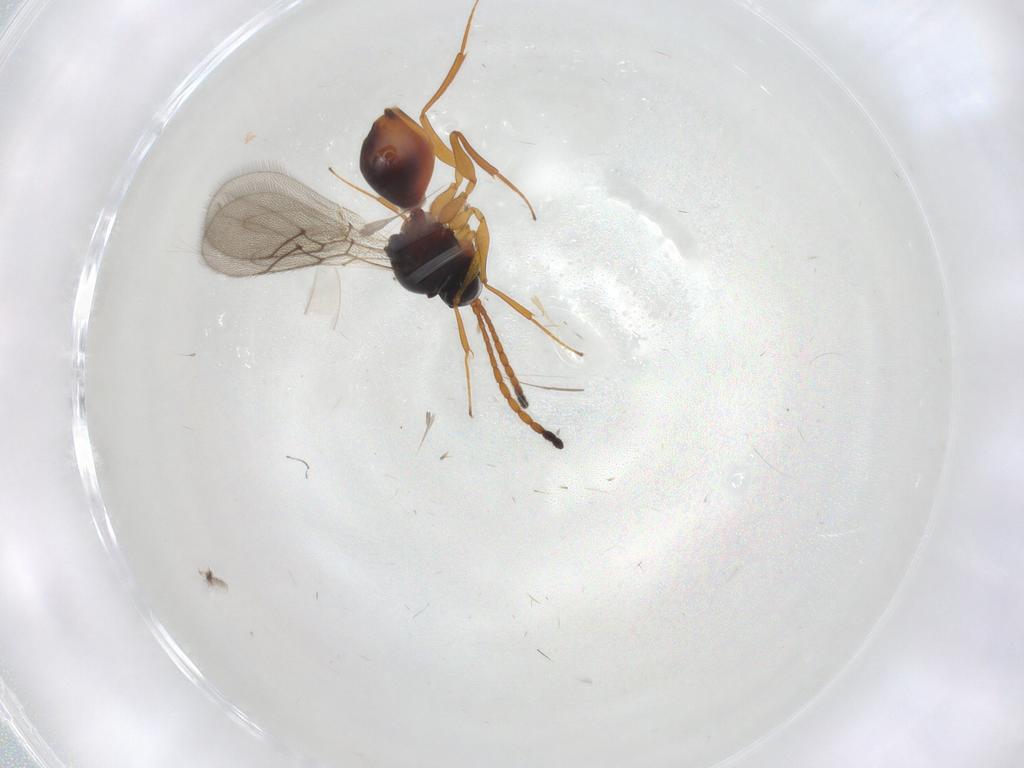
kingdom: Animalia
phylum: Arthropoda
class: Insecta
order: Hymenoptera
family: Figitidae
